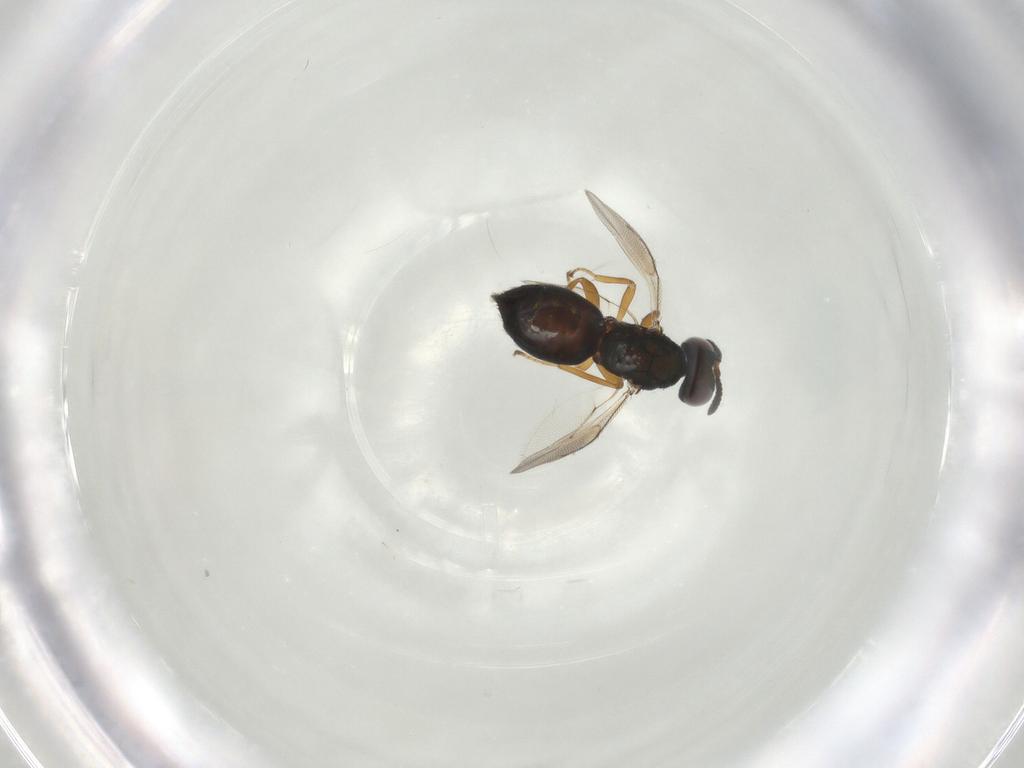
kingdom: Animalia
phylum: Arthropoda
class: Insecta
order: Hymenoptera
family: Pteromalidae
